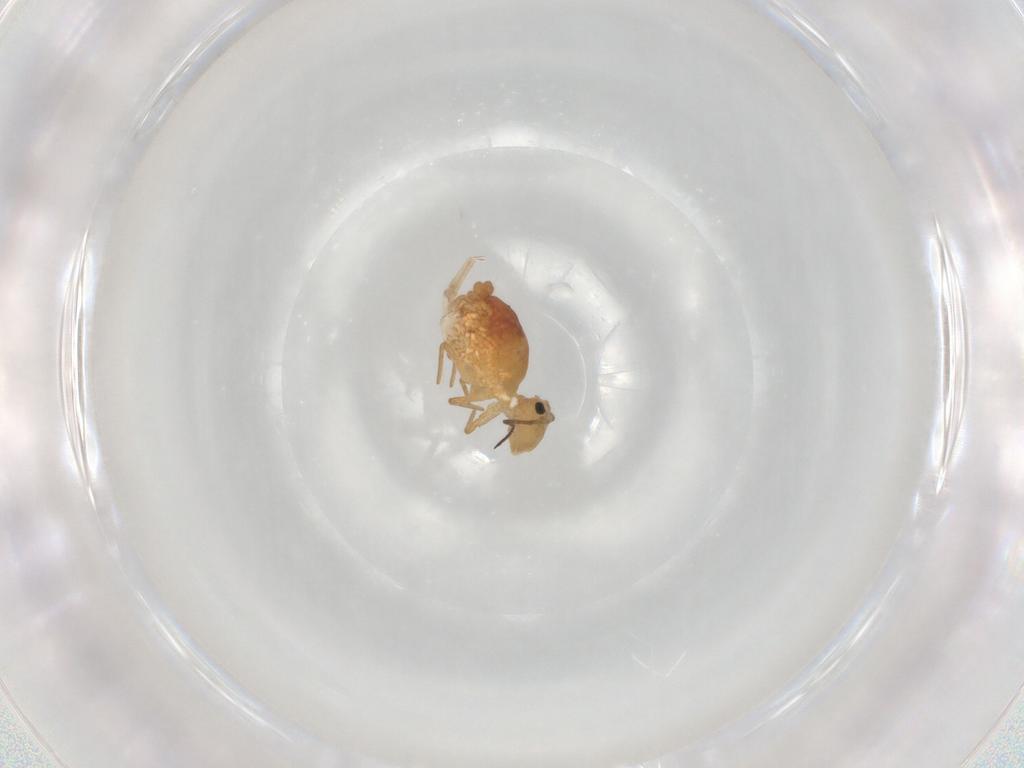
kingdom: Animalia
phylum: Arthropoda
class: Collembola
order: Symphypleona
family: Sminthuridae
